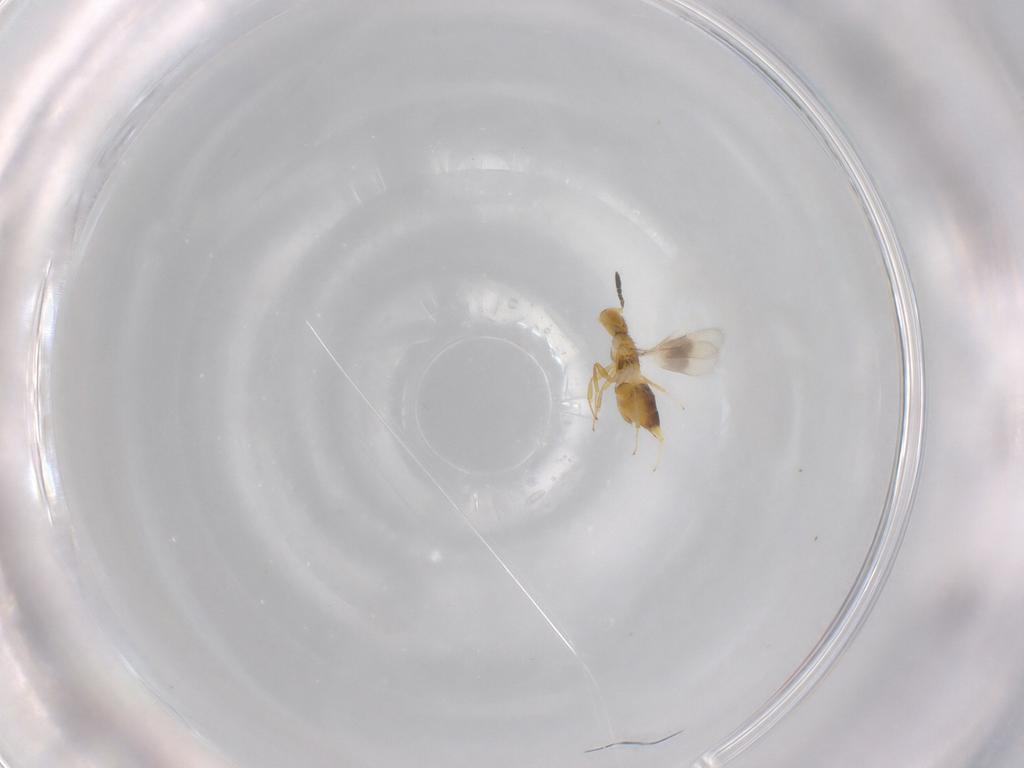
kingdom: Animalia
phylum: Arthropoda
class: Insecta
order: Hymenoptera
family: Encyrtidae
